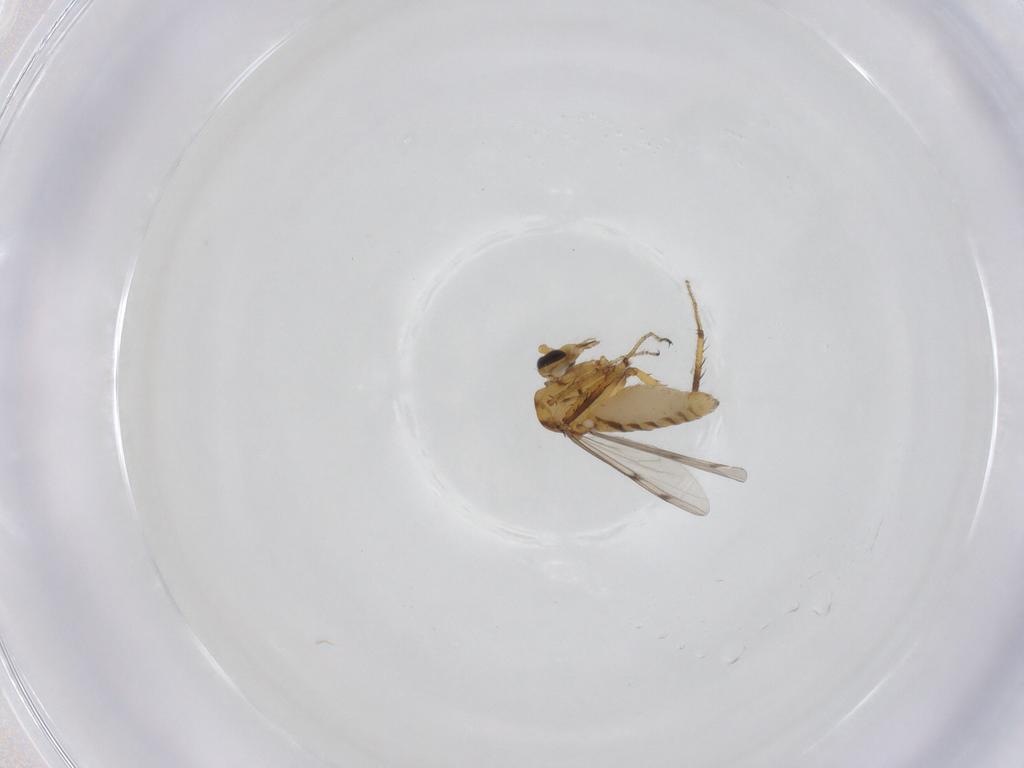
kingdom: Animalia
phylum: Arthropoda
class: Insecta
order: Diptera
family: Ceratopogonidae
